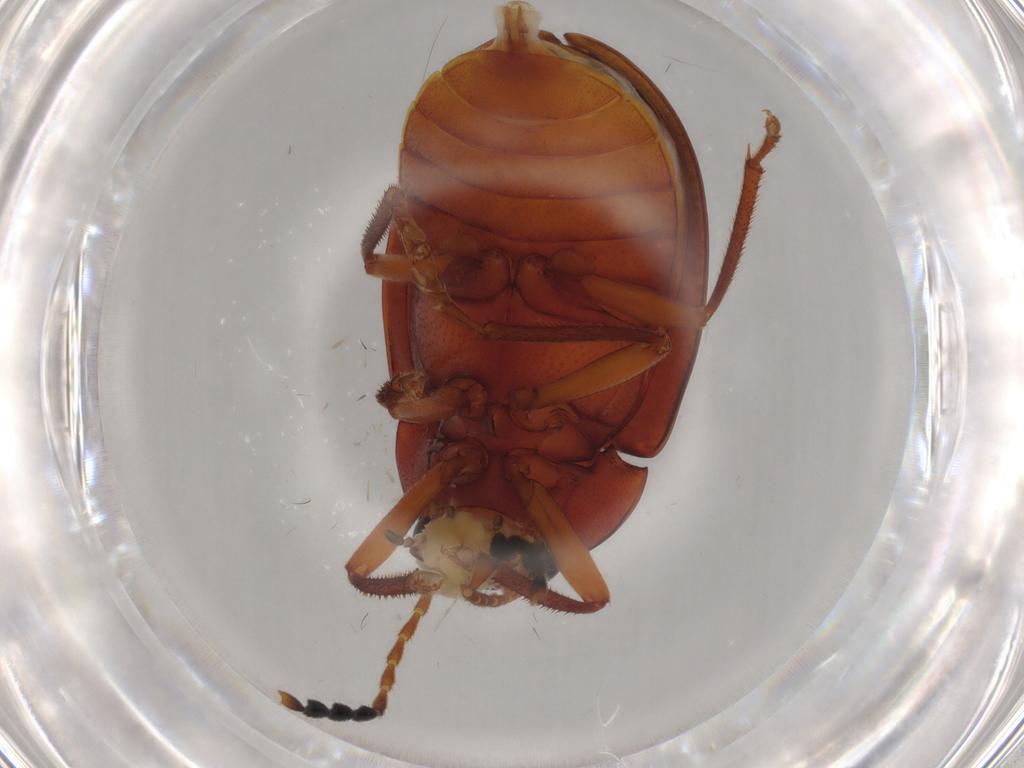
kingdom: Animalia
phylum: Arthropoda
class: Insecta
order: Coleoptera
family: Ptilodactylidae
